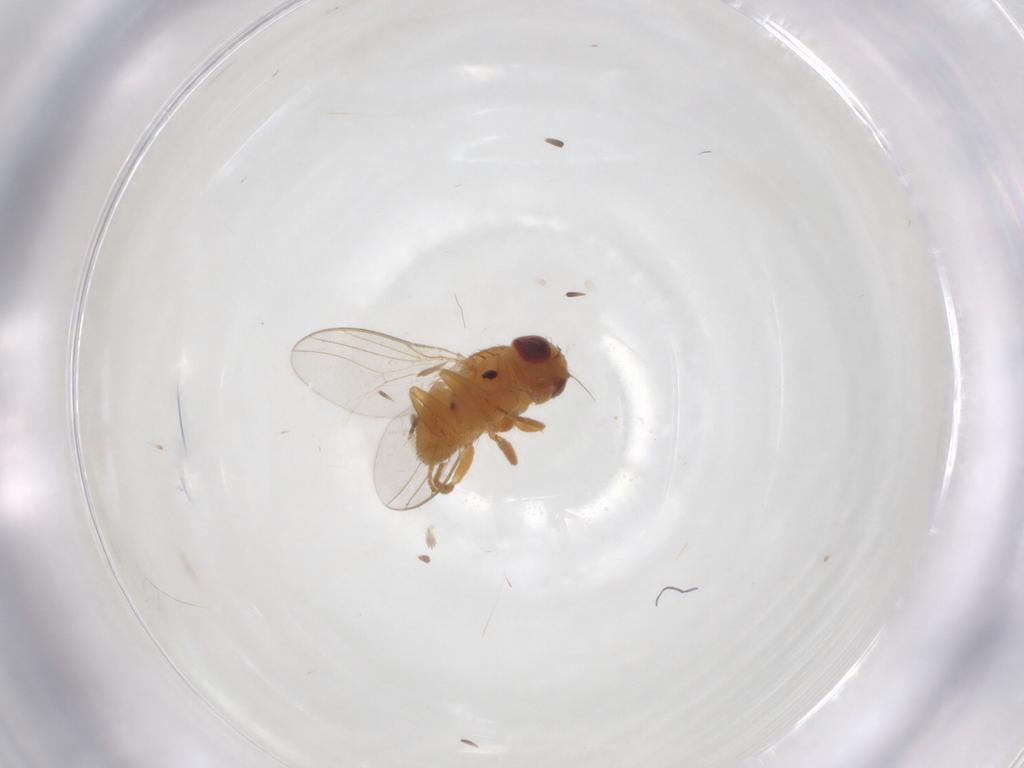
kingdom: Animalia
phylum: Arthropoda
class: Insecta
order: Diptera
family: Chloropidae
